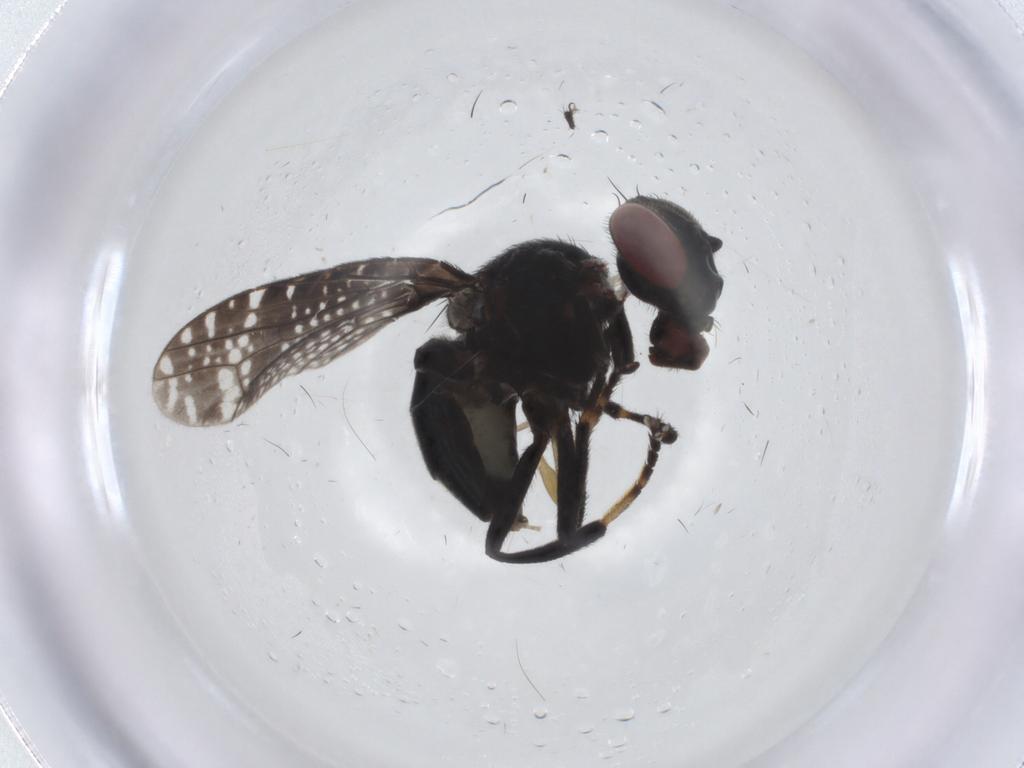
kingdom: Animalia
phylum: Arthropoda
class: Insecta
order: Diptera
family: Platystomatidae
